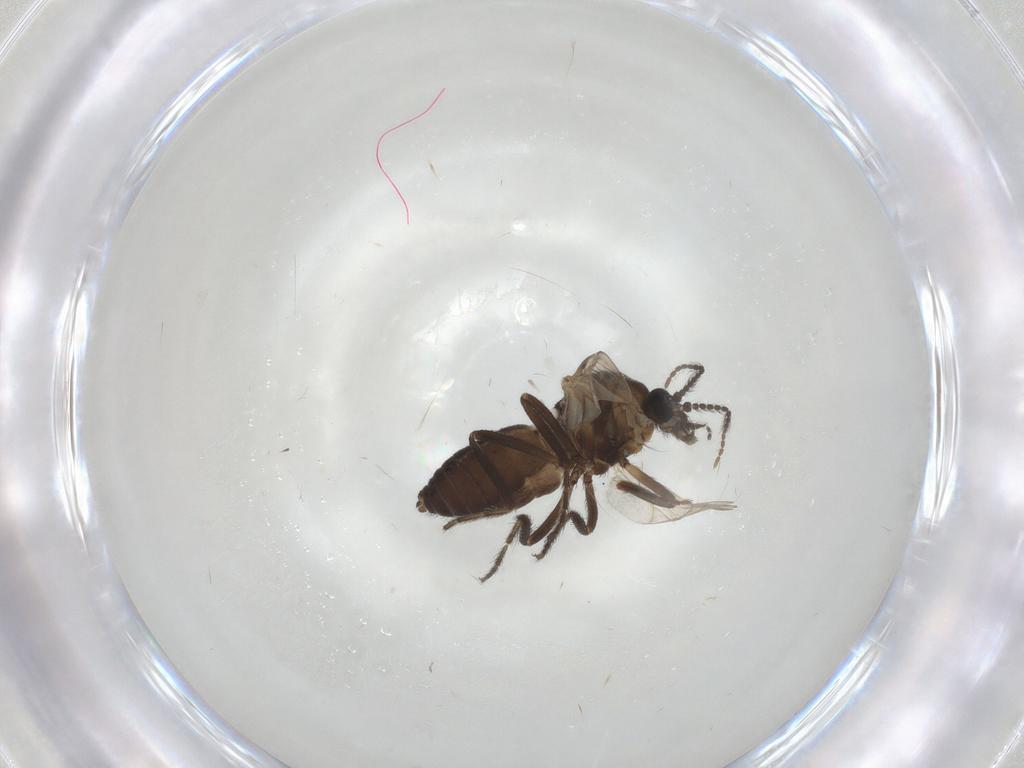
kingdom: Animalia
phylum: Arthropoda
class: Insecta
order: Diptera
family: Ceratopogonidae
